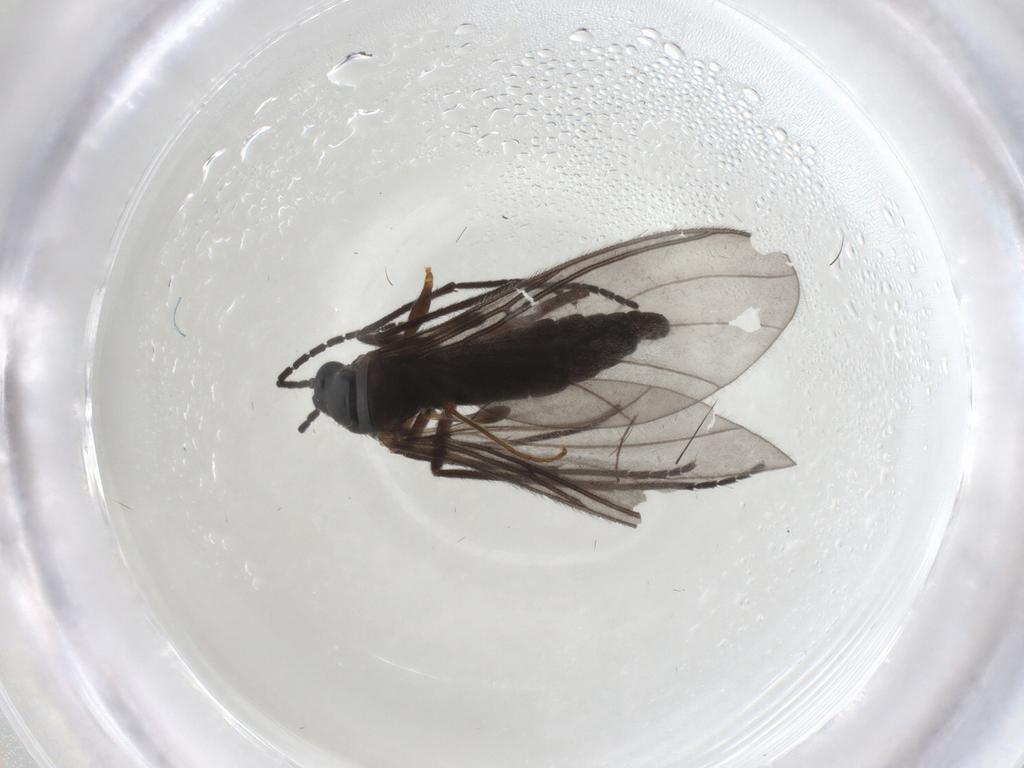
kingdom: Animalia
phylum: Arthropoda
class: Insecta
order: Diptera
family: Sciaridae
